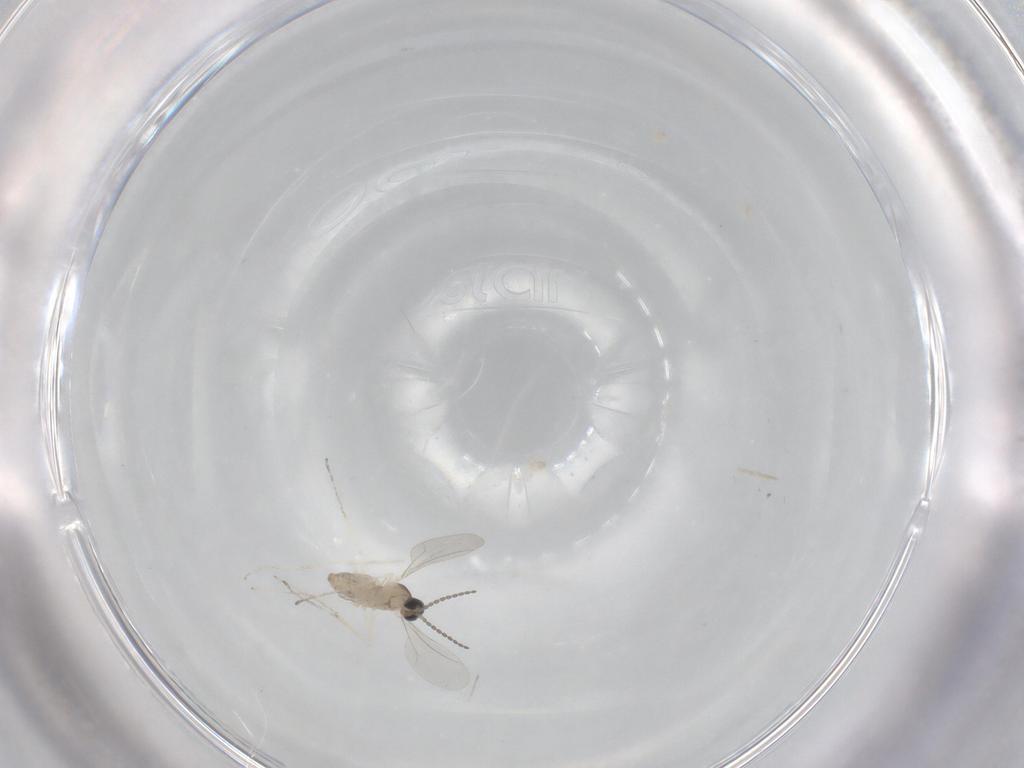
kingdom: Animalia
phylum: Arthropoda
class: Insecta
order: Diptera
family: Cecidomyiidae
